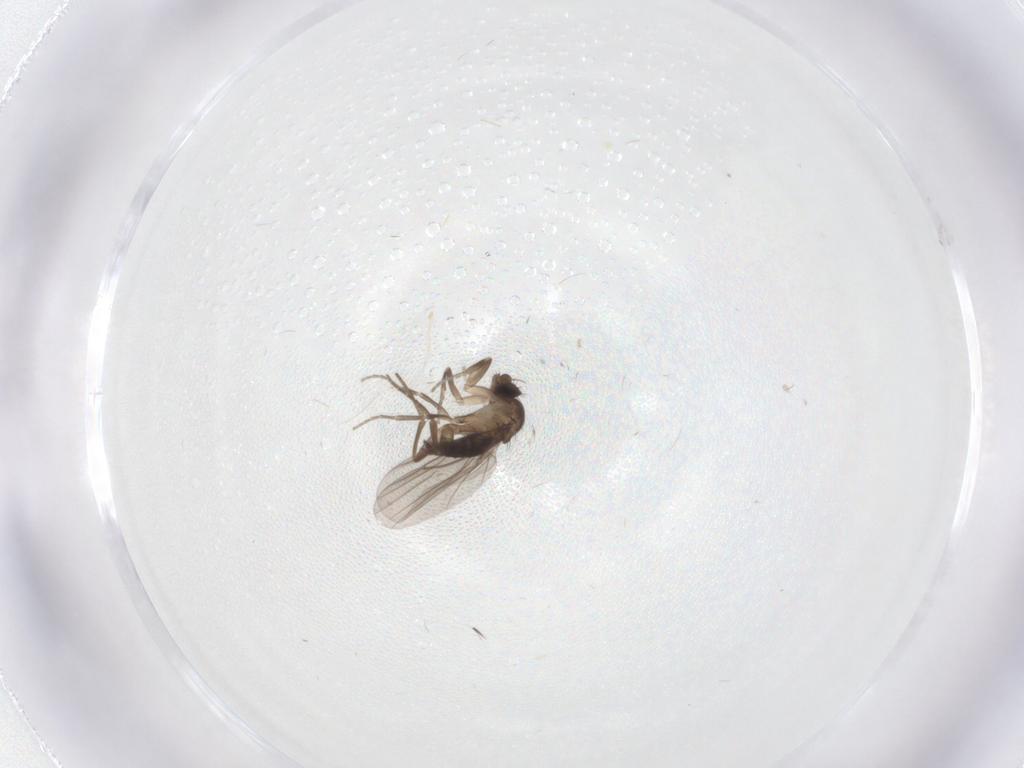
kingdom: Animalia
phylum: Arthropoda
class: Insecta
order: Diptera
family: Phoridae
